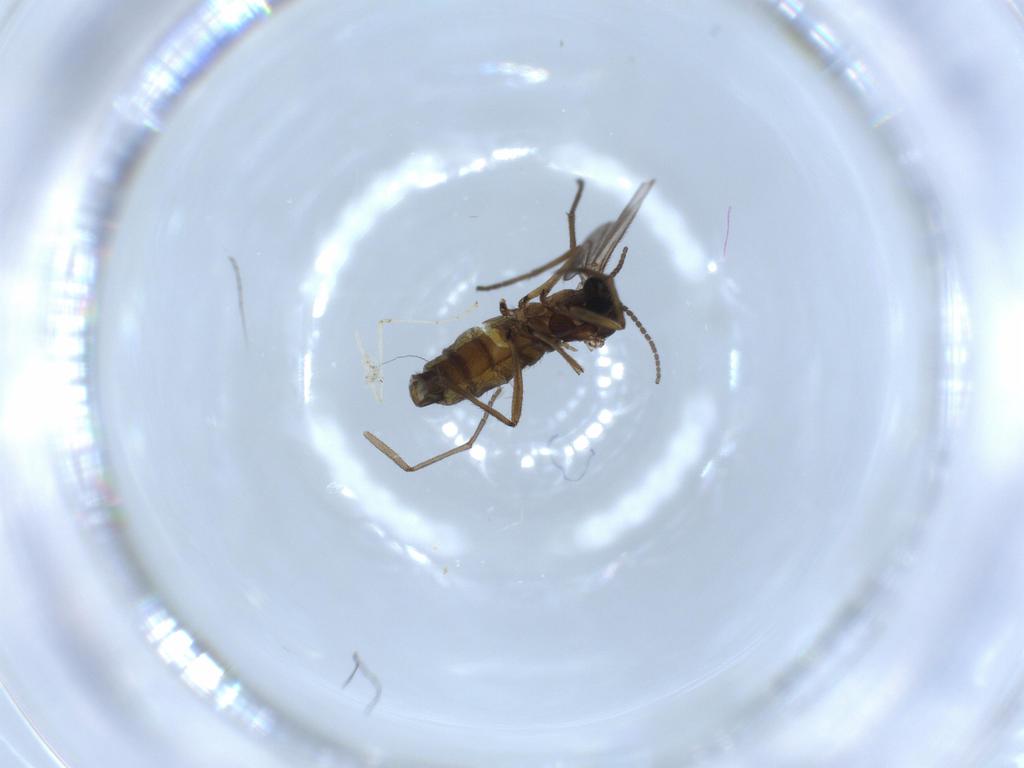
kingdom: Animalia
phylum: Arthropoda
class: Insecta
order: Diptera
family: Sciaridae
